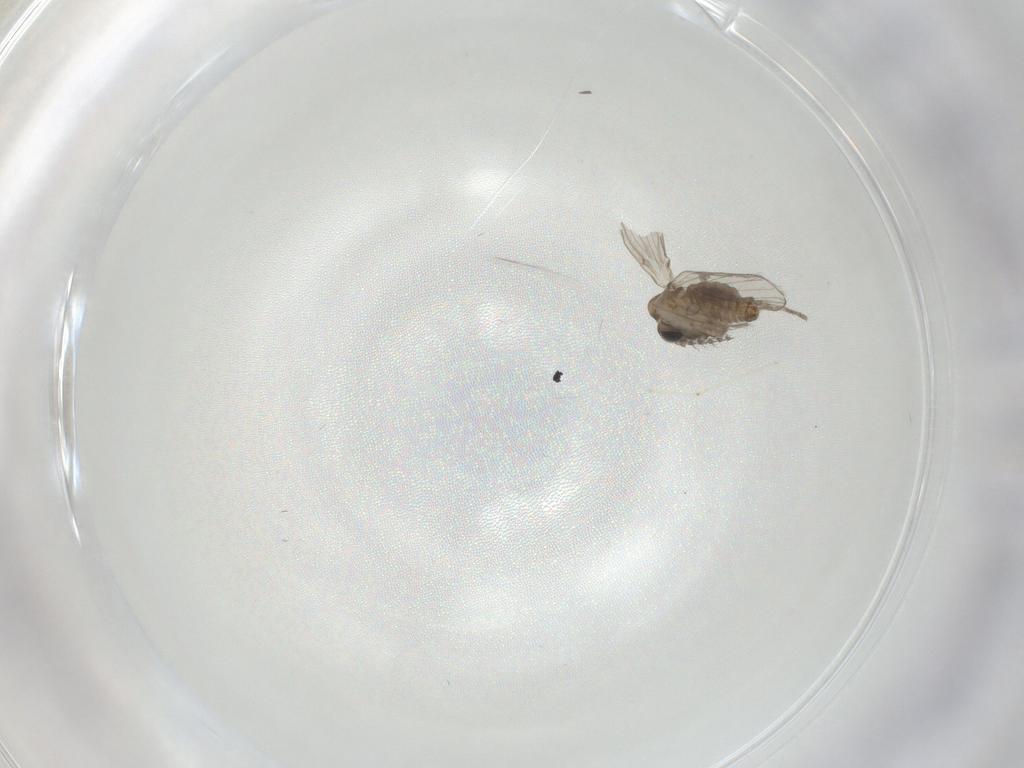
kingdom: Animalia
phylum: Arthropoda
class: Insecta
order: Diptera
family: Cecidomyiidae
